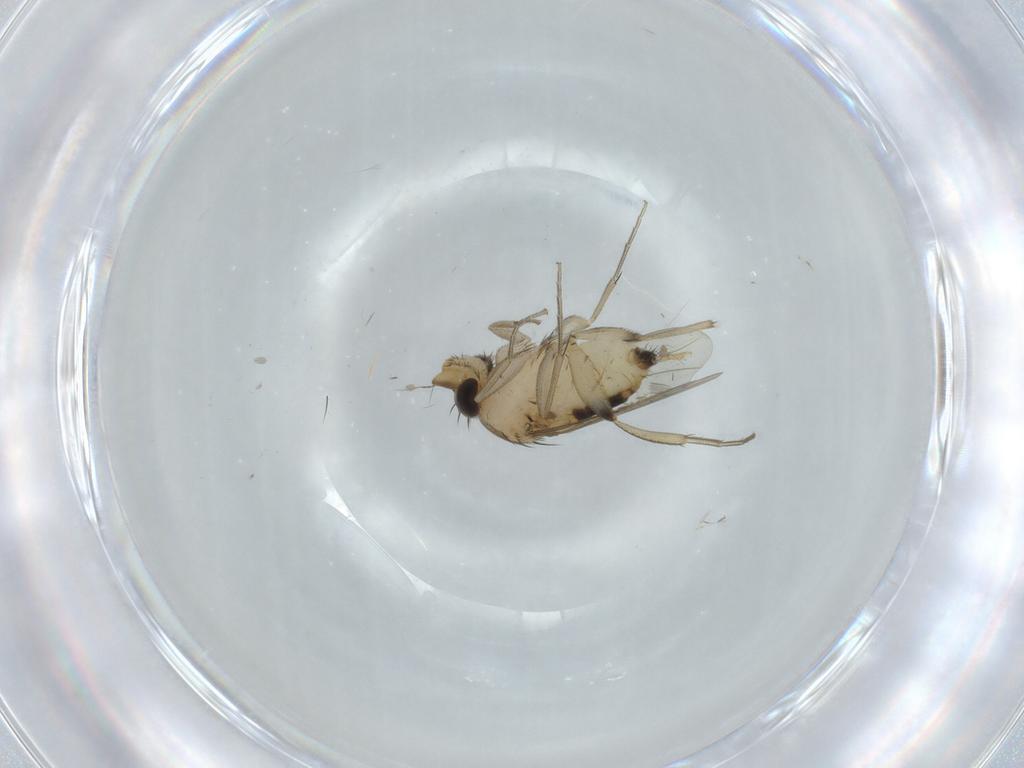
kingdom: Animalia
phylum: Arthropoda
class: Insecta
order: Diptera
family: Phoridae
